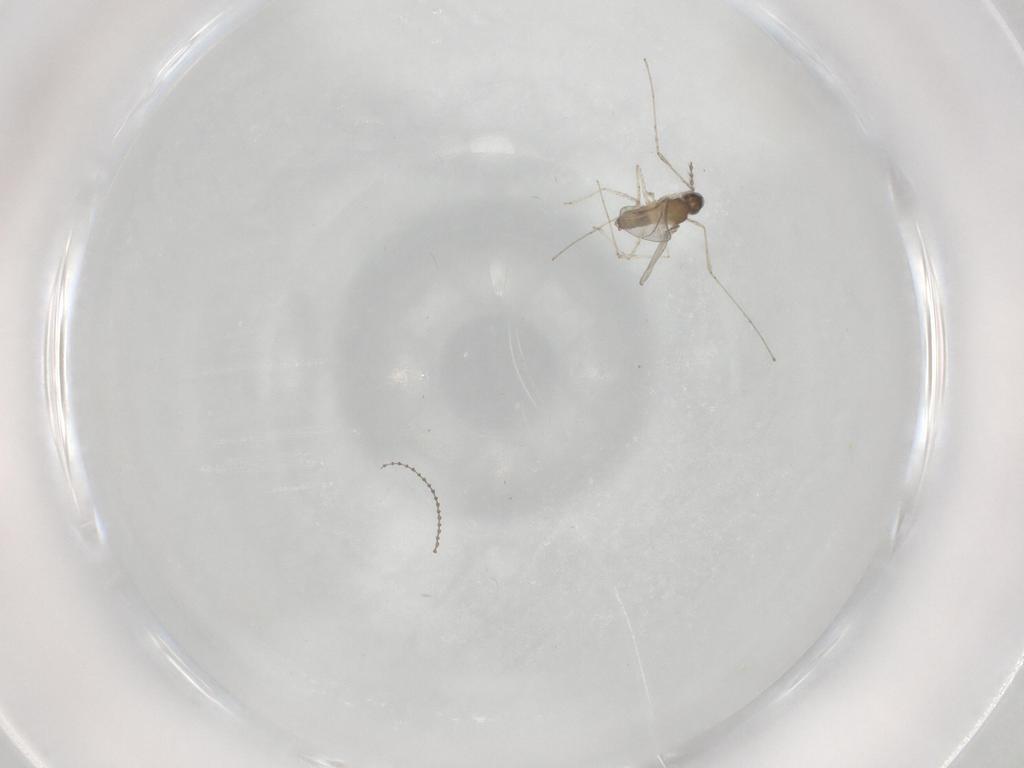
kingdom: Animalia
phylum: Arthropoda
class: Insecta
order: Diptera
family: Cecidomyiidae
